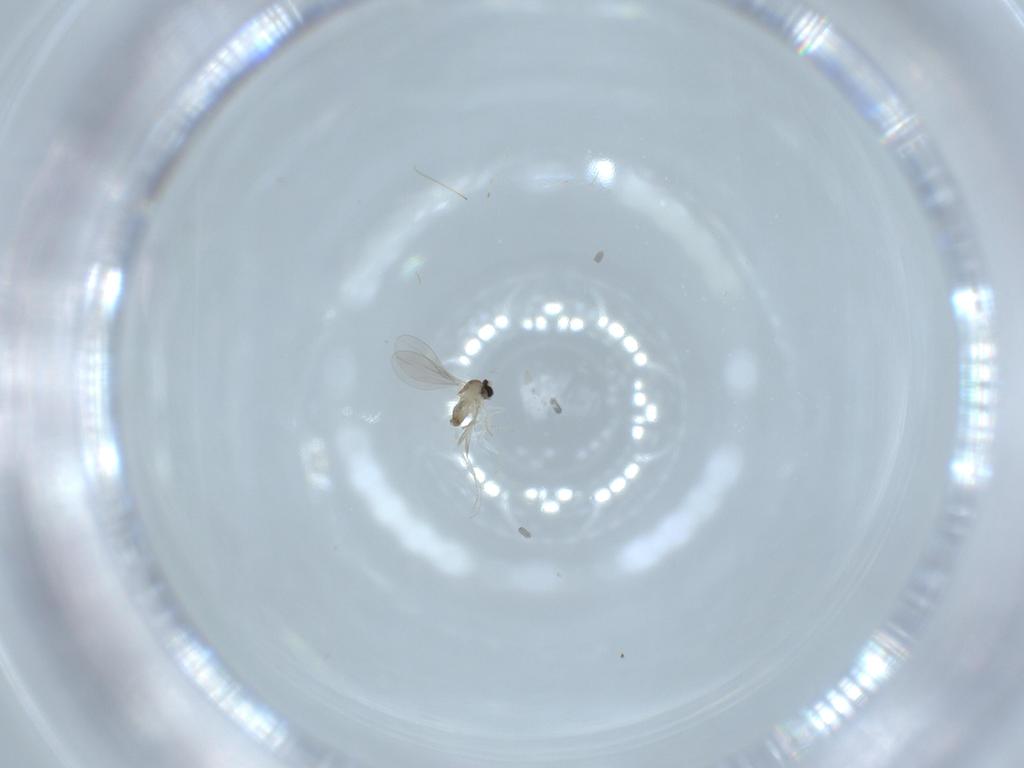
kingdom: Animalia
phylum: Arthropoda
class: Insecta
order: Diptera
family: Cecidomyiidae
